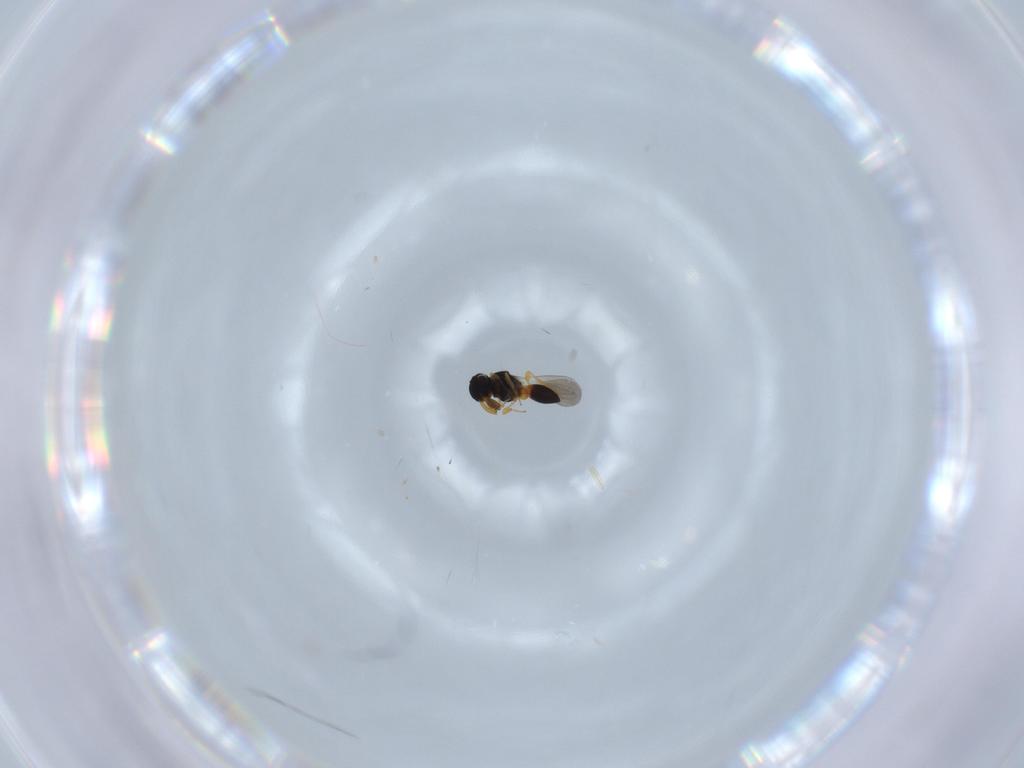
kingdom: Animalia
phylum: Arthropoda
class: Insecta
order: Hymenoptera
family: Platygastridae
